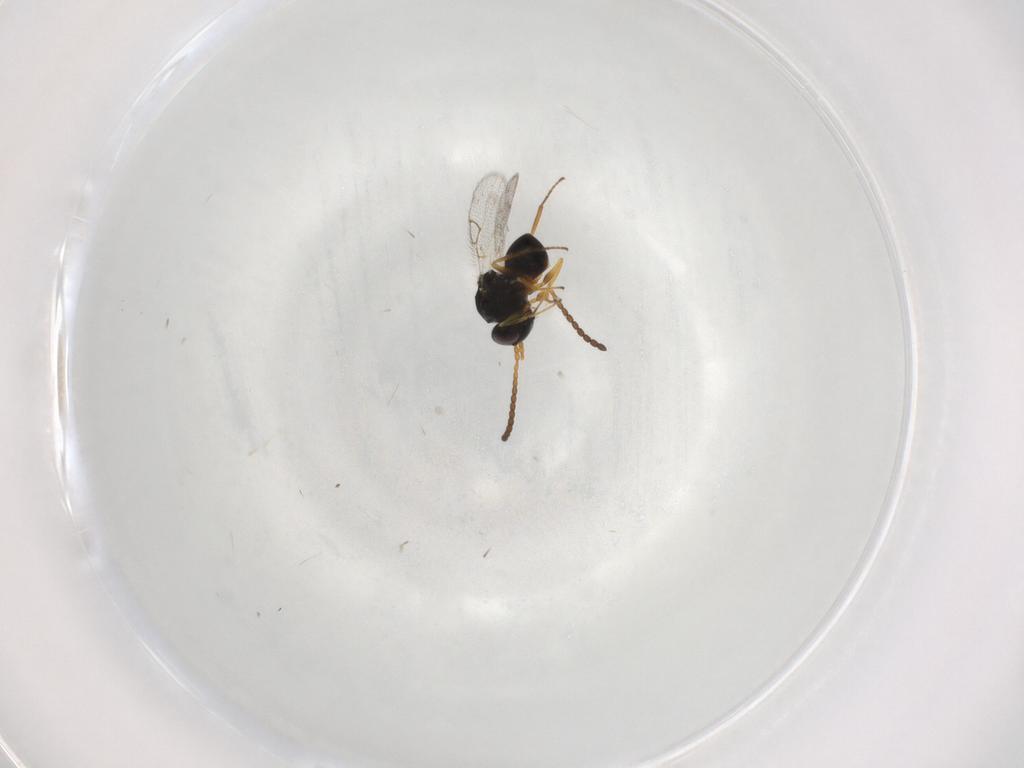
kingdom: Animalia
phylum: Arthropoda
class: Insecta
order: Hymenoptera
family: Figitidae
